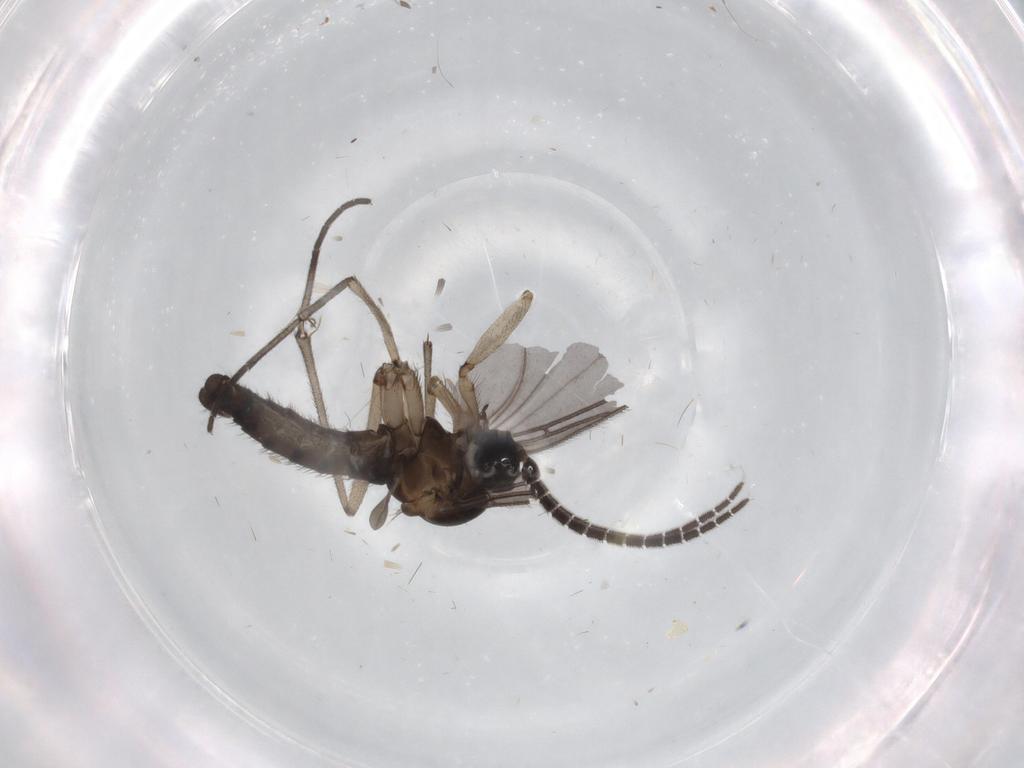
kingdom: Animalia
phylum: Arthropoda
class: Insecta
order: Diptera
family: Sciaridae
